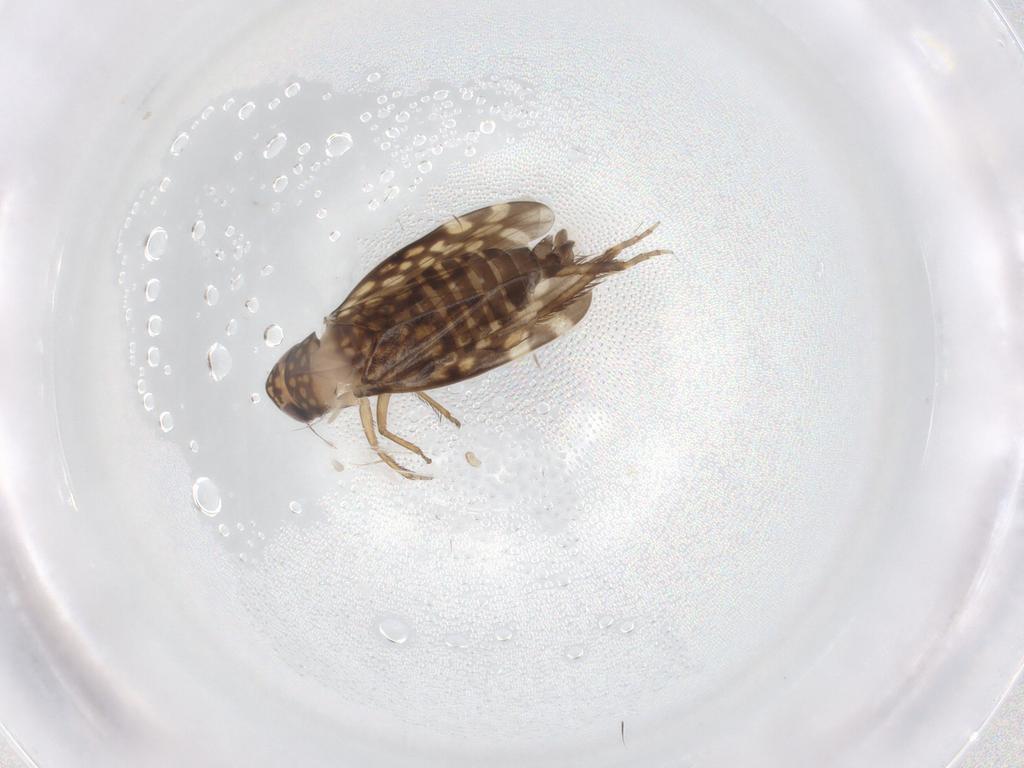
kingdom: Animalia
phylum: Arthropoda
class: Insecta
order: Hemiptera
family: Cicadellidae
